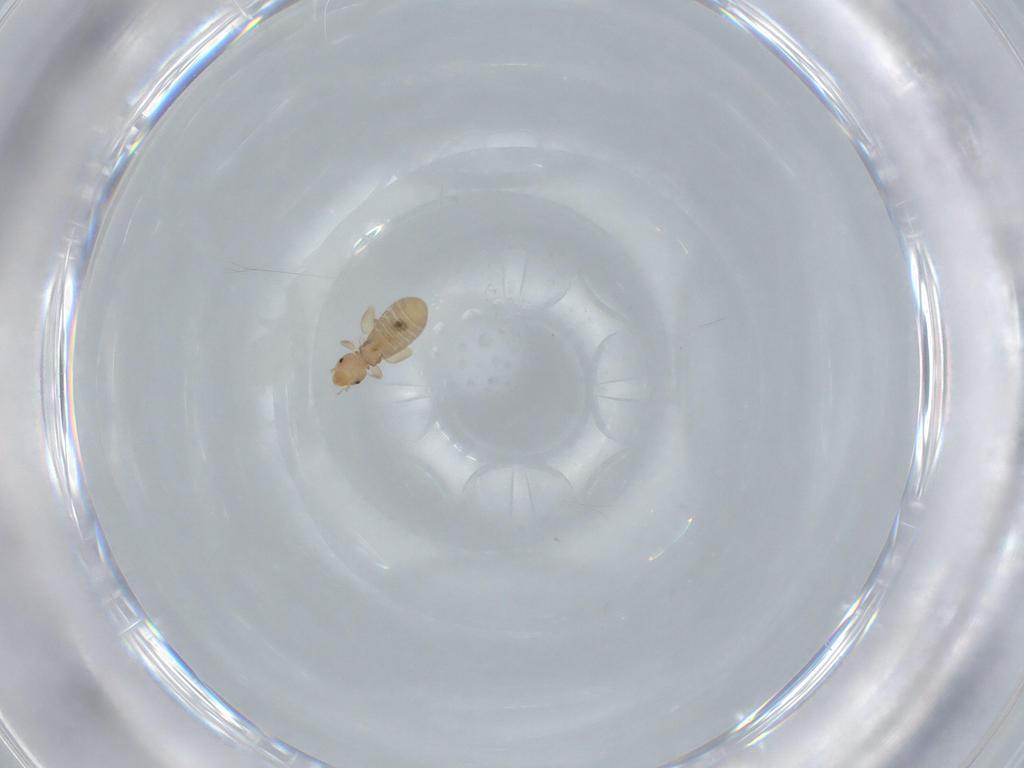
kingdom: Animalia
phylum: Arthropoda
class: Insecta
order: Psocodea
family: Liposcelididae
